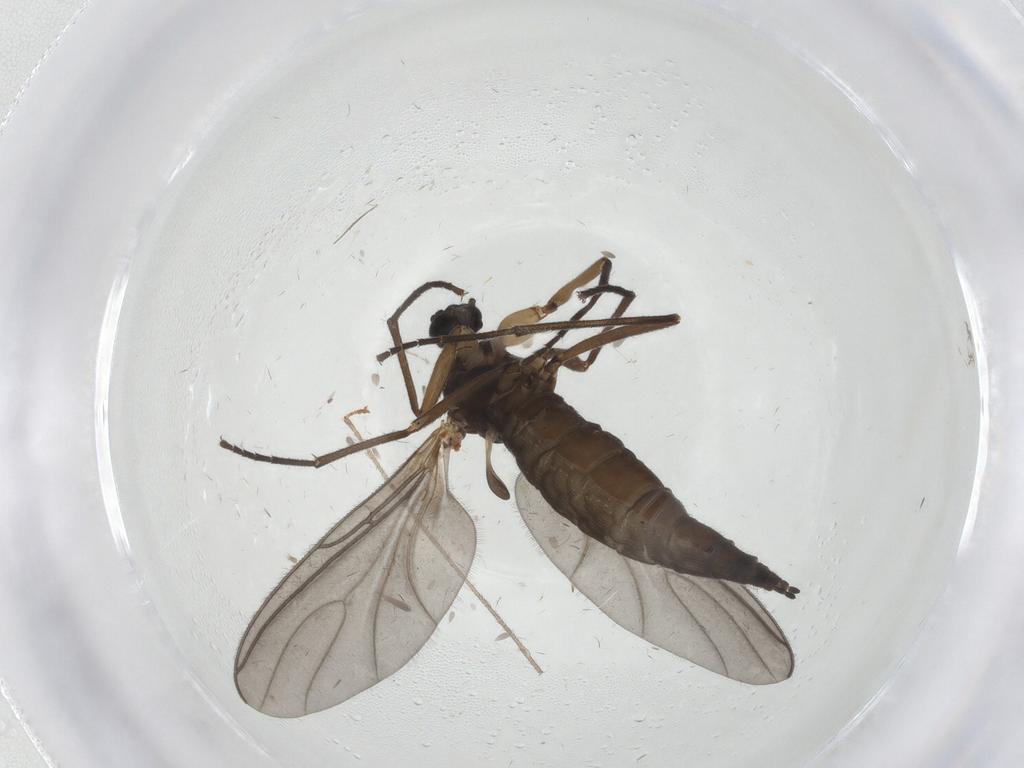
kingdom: Animalia
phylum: Arthropoda
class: Insecta
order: Diptera
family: Sciaridae
